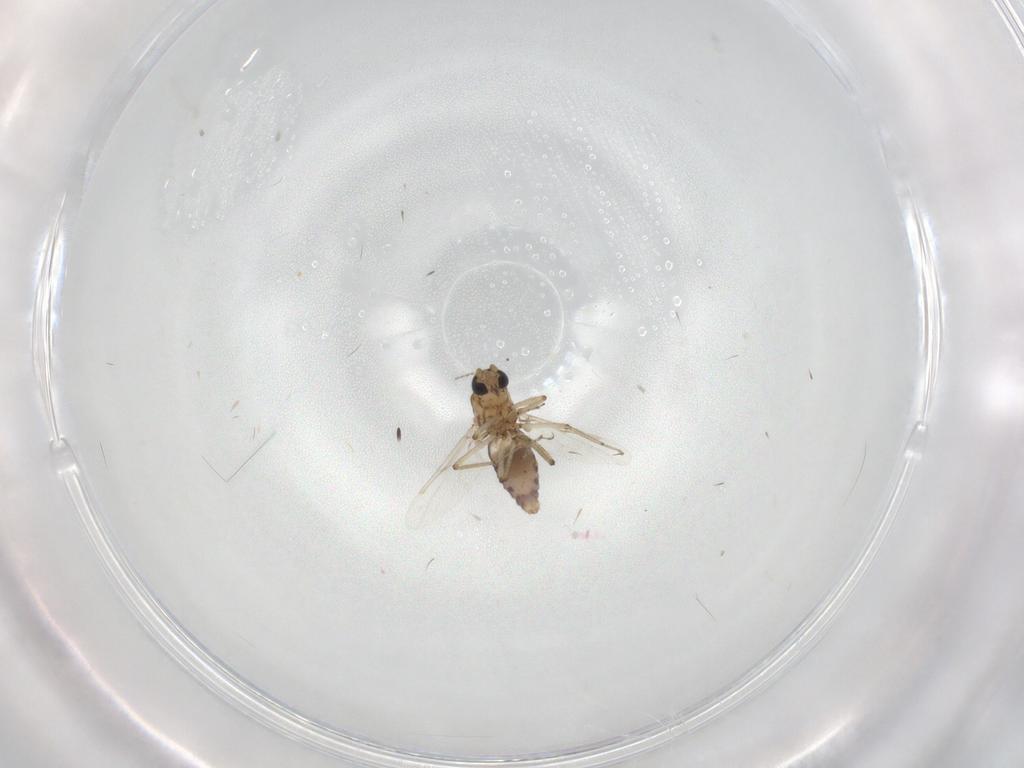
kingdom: Animalia
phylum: Arthropoda
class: Insecta
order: Diptera
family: Ceratopogonidae
